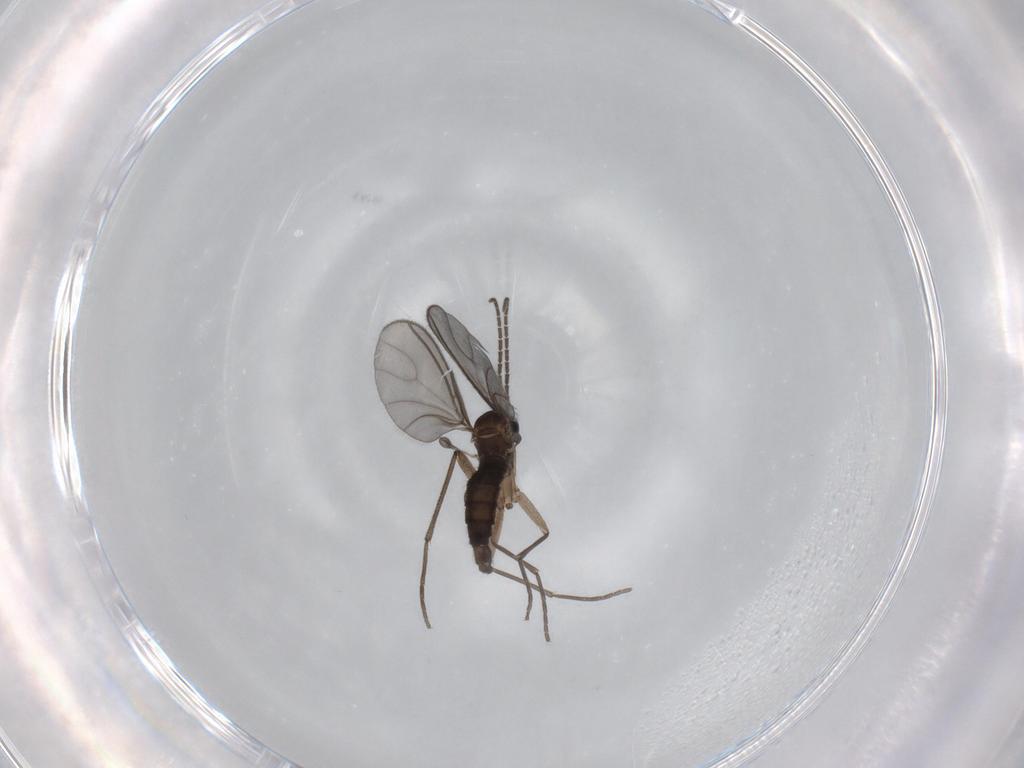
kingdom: Animalia
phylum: Arthropoda
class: Insecta
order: Diptera
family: Sciaridae
